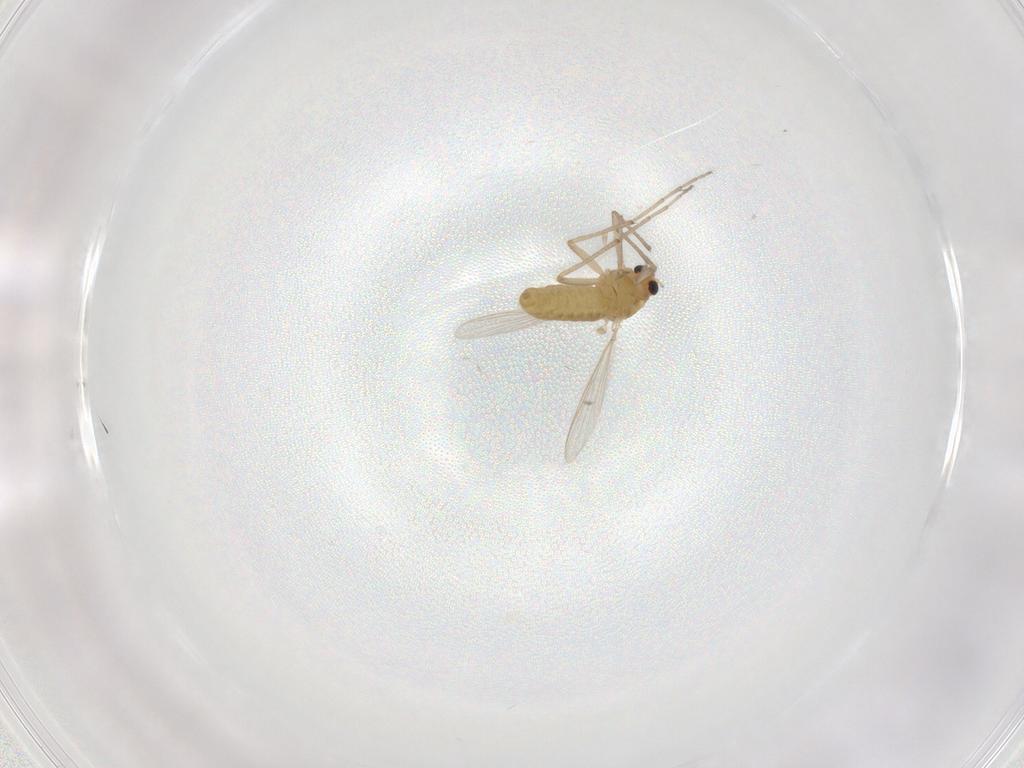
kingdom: Animalia
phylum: Arthropoda
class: Insecta
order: Diptera
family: Chironomidae
